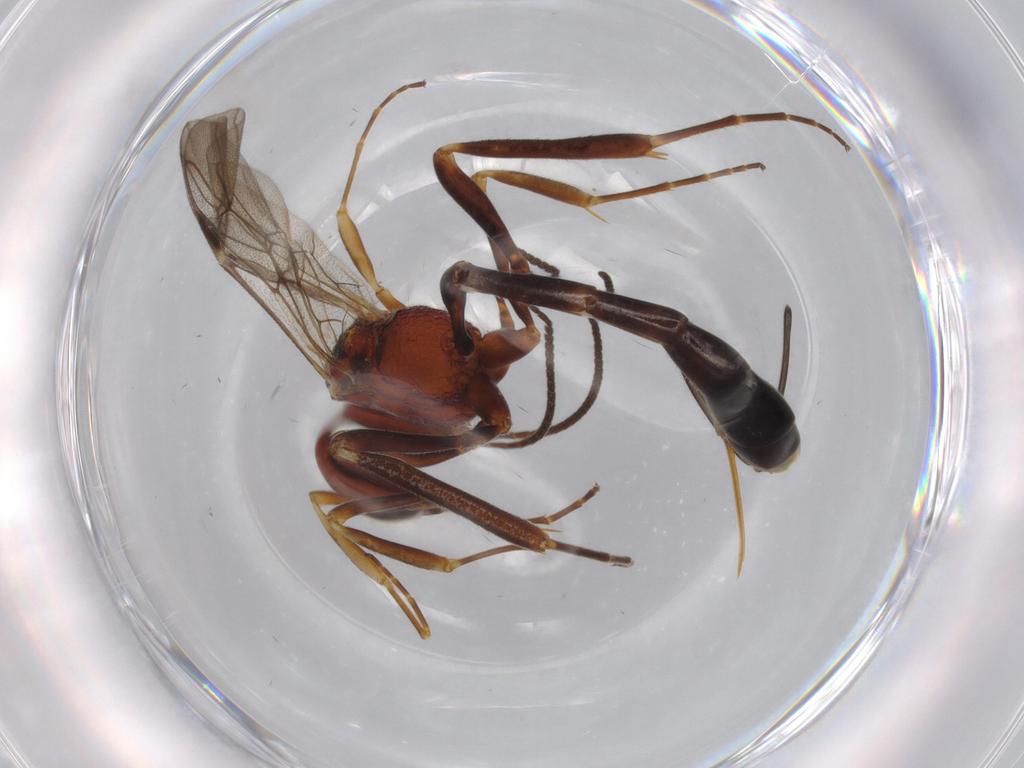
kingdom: Animalia
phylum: Arthropoda
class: Insecta
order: Hymenoptera
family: Ichneumonidae
